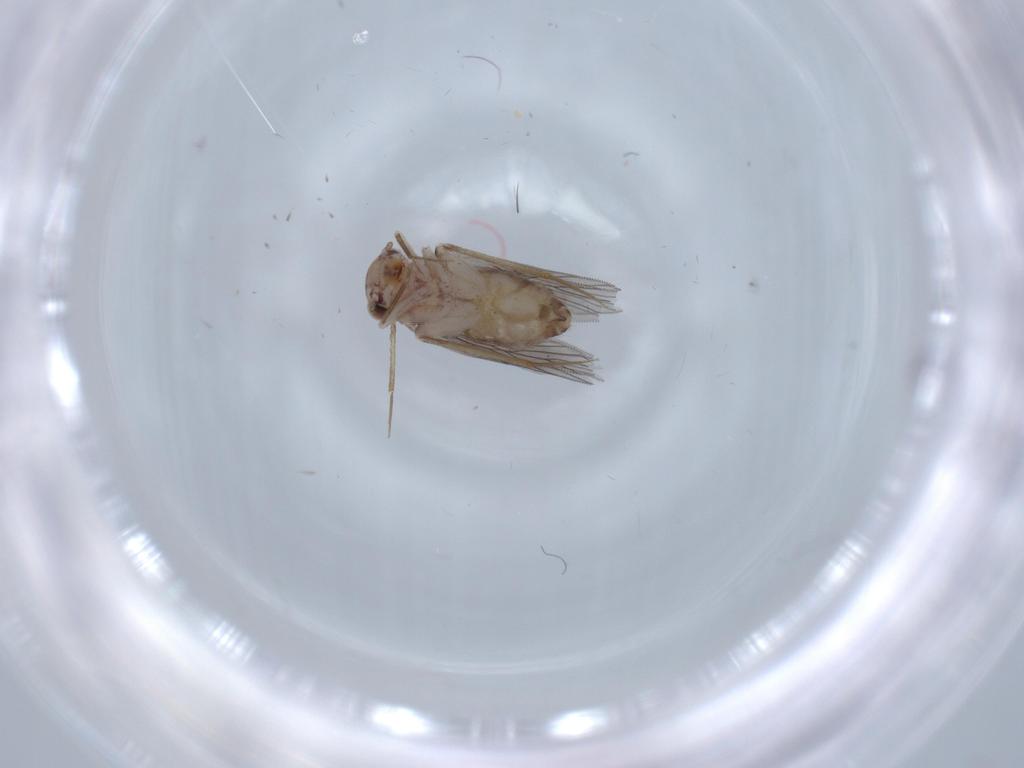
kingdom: Animalia
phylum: Arthropoda
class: Insecta
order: Psocodea
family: Lepidopsocidae
